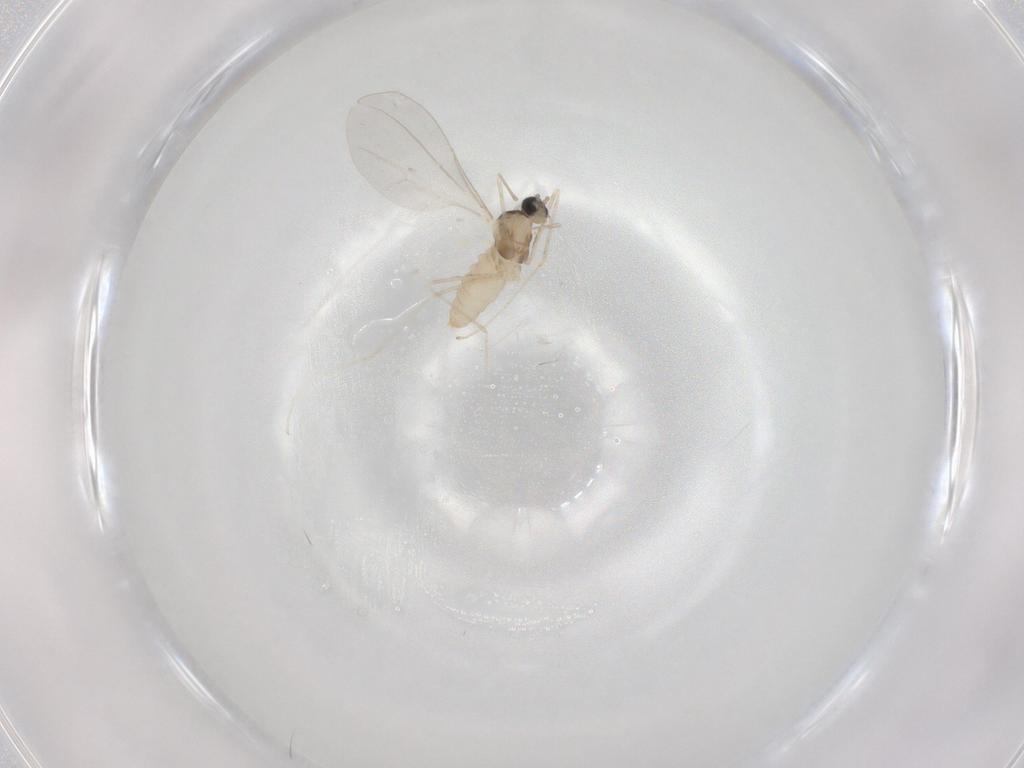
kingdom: Animalia
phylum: Arthropoda
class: Insecta
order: Diptera
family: Cecidomyiidae
